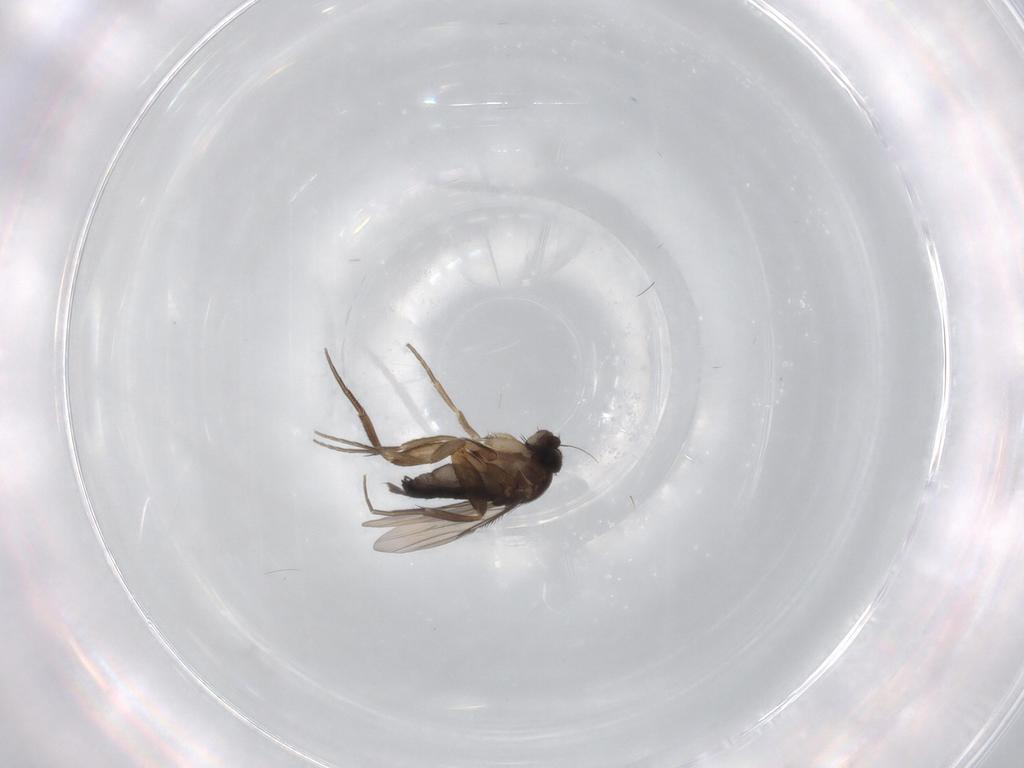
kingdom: Animalia
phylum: Arthropoda
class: Insecta
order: Diptera
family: Phoridae
